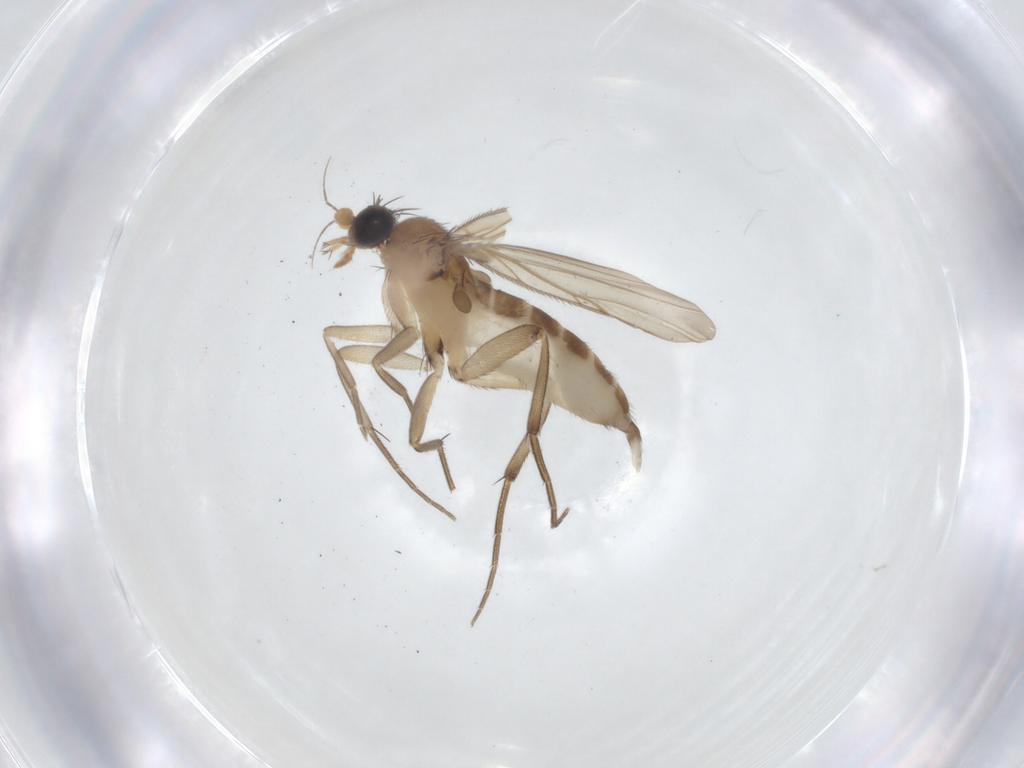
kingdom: Animalia
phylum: Arthropoda
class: Insecta
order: Diptera
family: Phoridae
